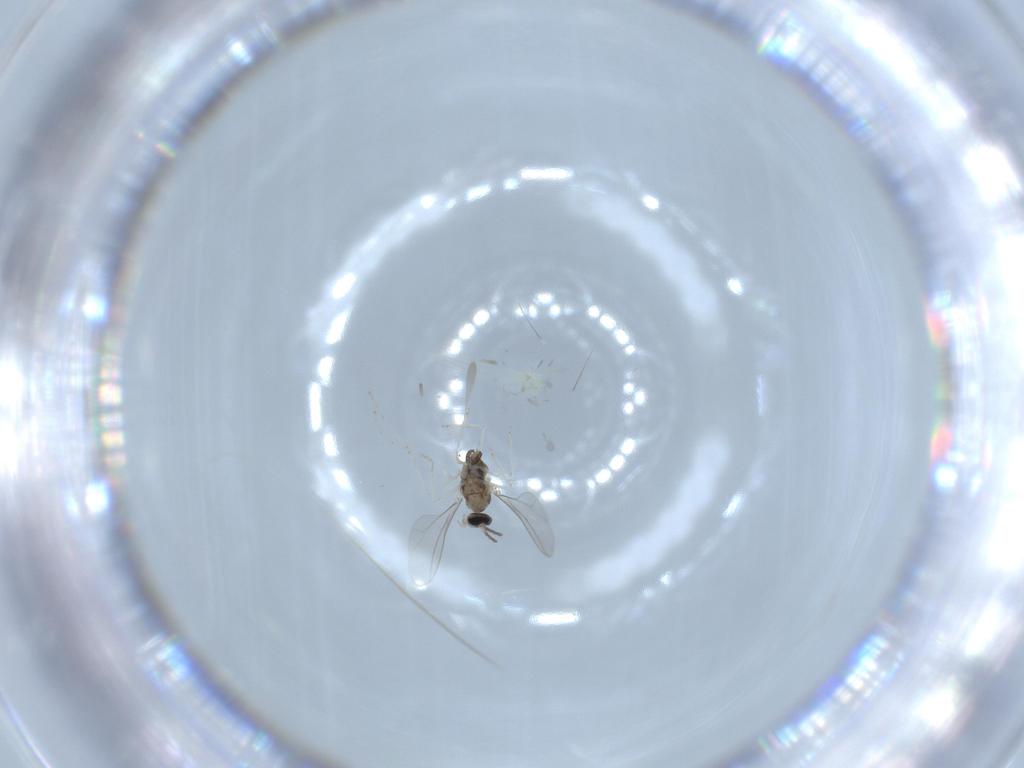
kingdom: Animalia
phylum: Arthropoda
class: Insecta
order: Diptera
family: Cecidomyiidae
